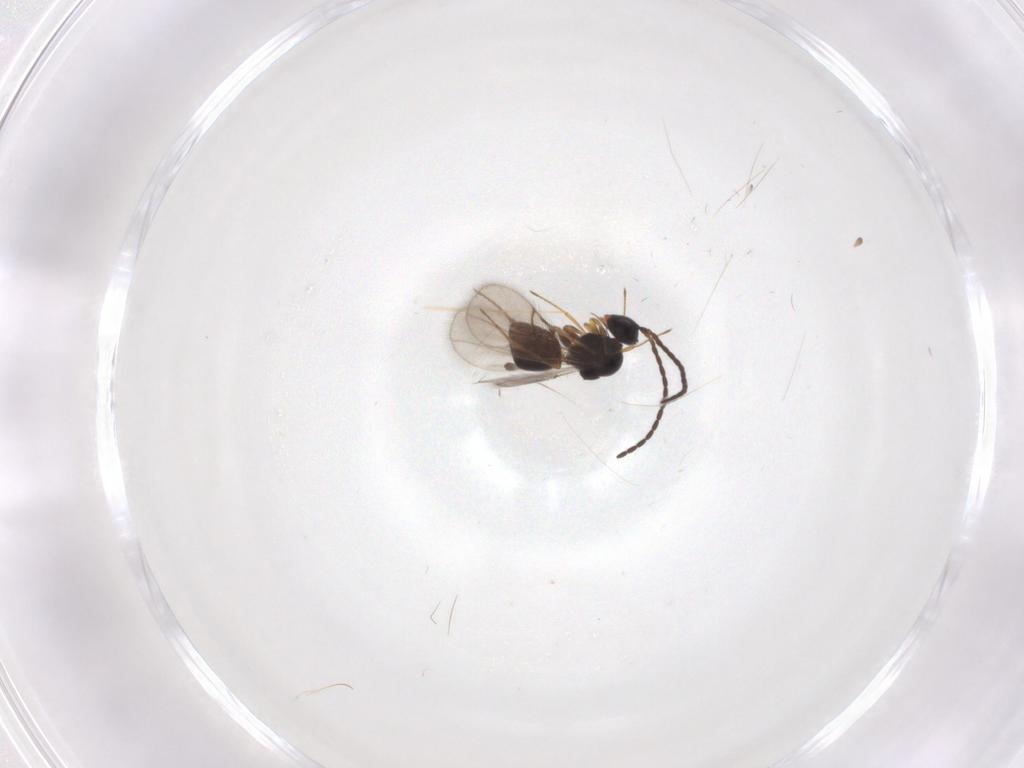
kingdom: Animalia
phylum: Arthropoda
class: Insecta
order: Hymenoptera
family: Figitidae
